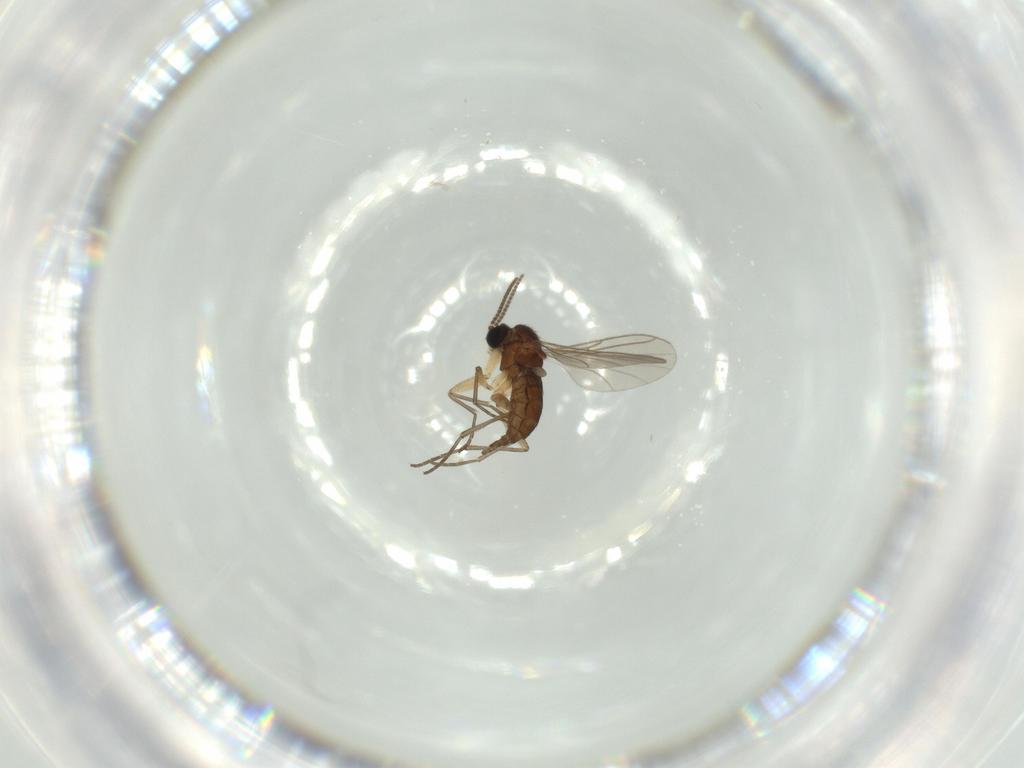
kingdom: Animalia
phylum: Arthropoda
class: Insecta
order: Diptera
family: Sciaridae
